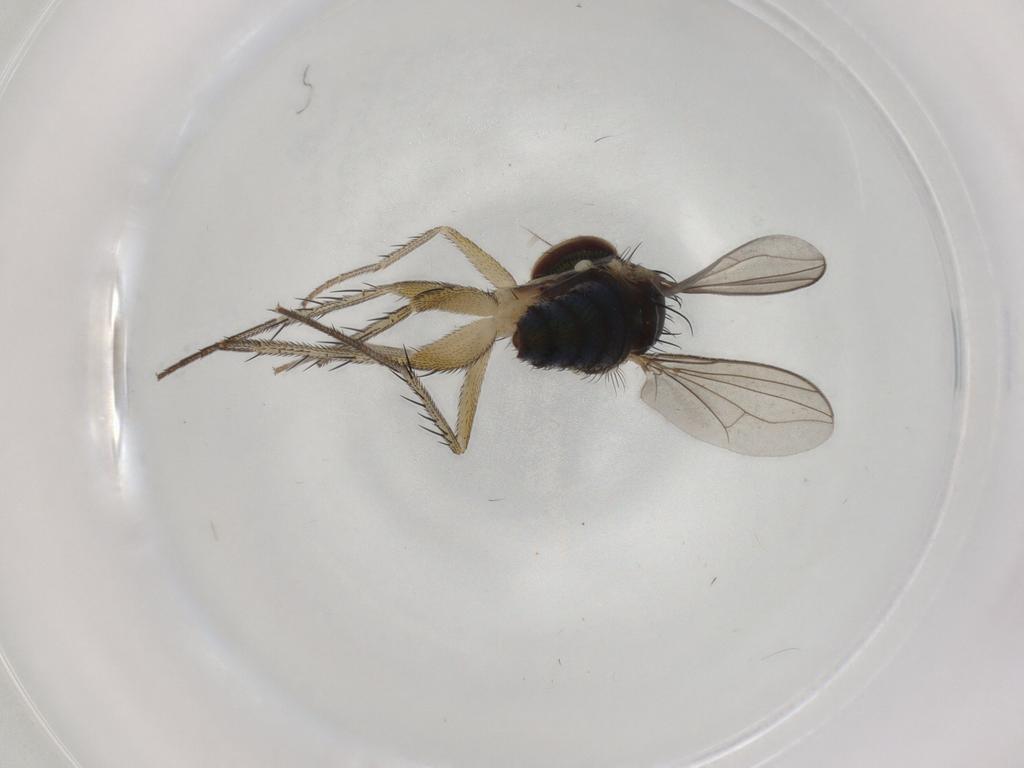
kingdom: Animalia
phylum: Arthropoda
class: Insecta
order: Diptera
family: Dolichopodidae
